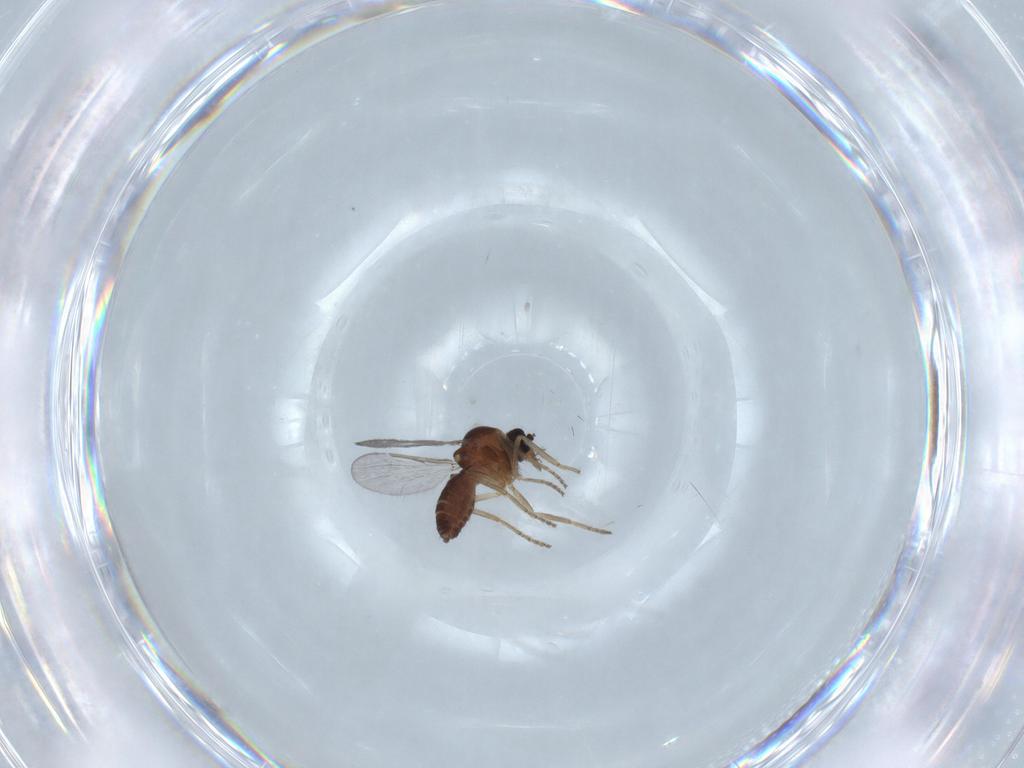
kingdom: Animalia
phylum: Arthropoda
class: Insecta
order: Diptera
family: Ceratopogonidae
